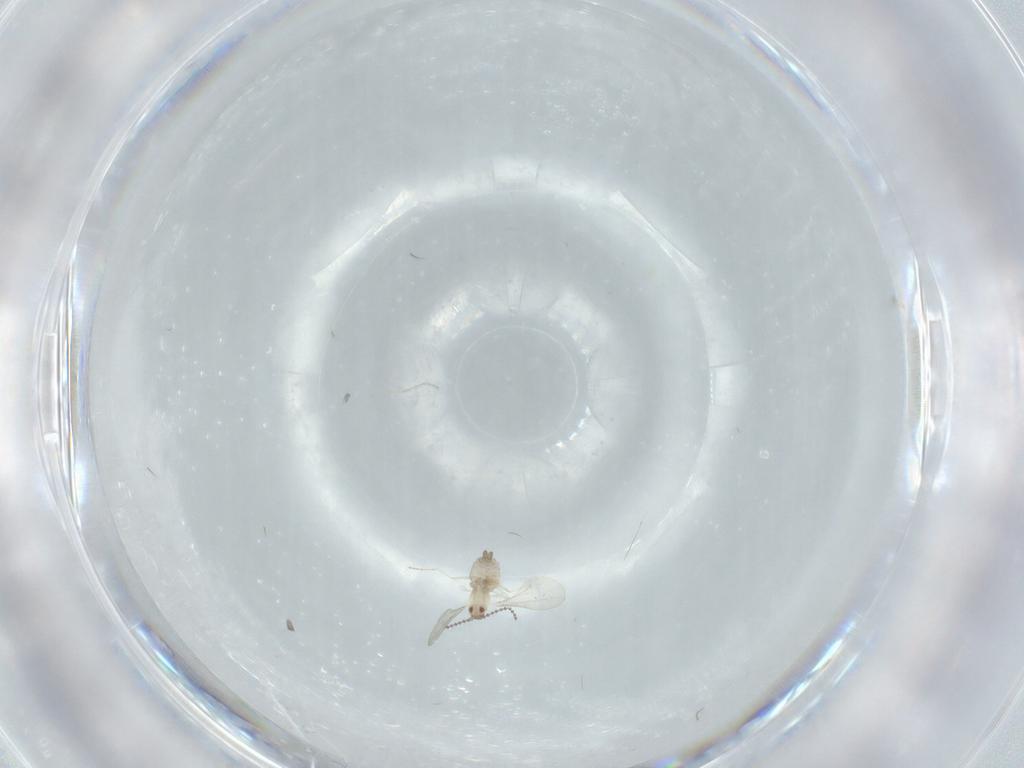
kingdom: Animalia
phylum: Arthropoda
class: Insecta
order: Diptera
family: Cecidomyiidae
